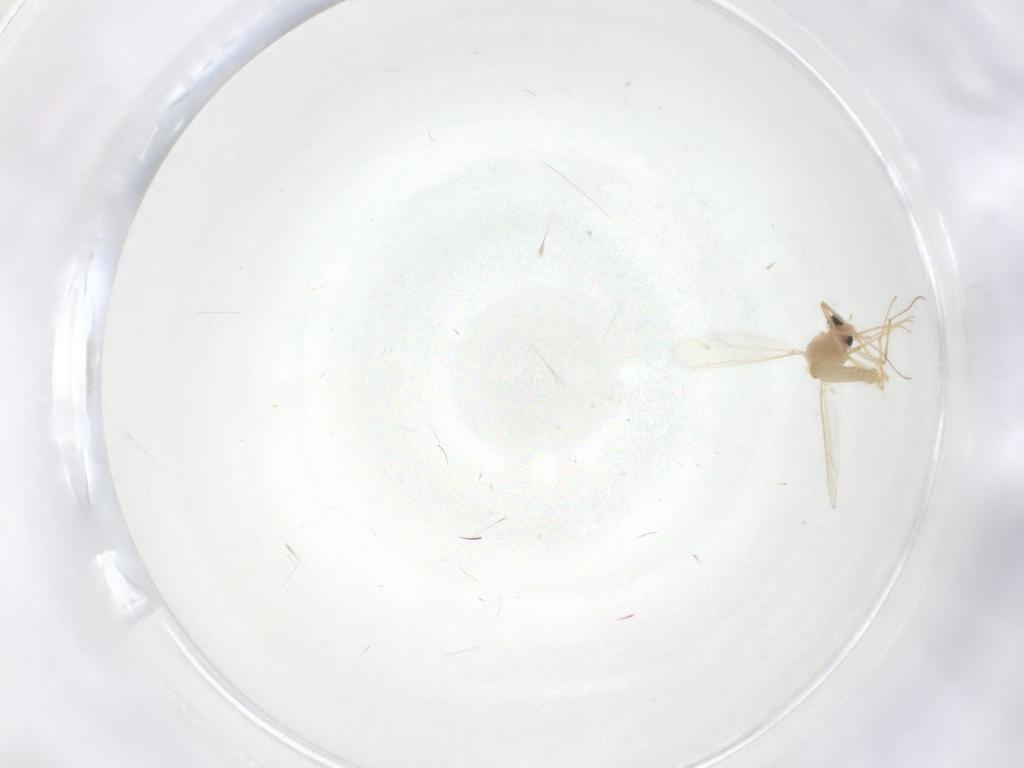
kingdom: Animalia
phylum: Arthropoda
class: Insecta
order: Diptera
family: Chironomidae
